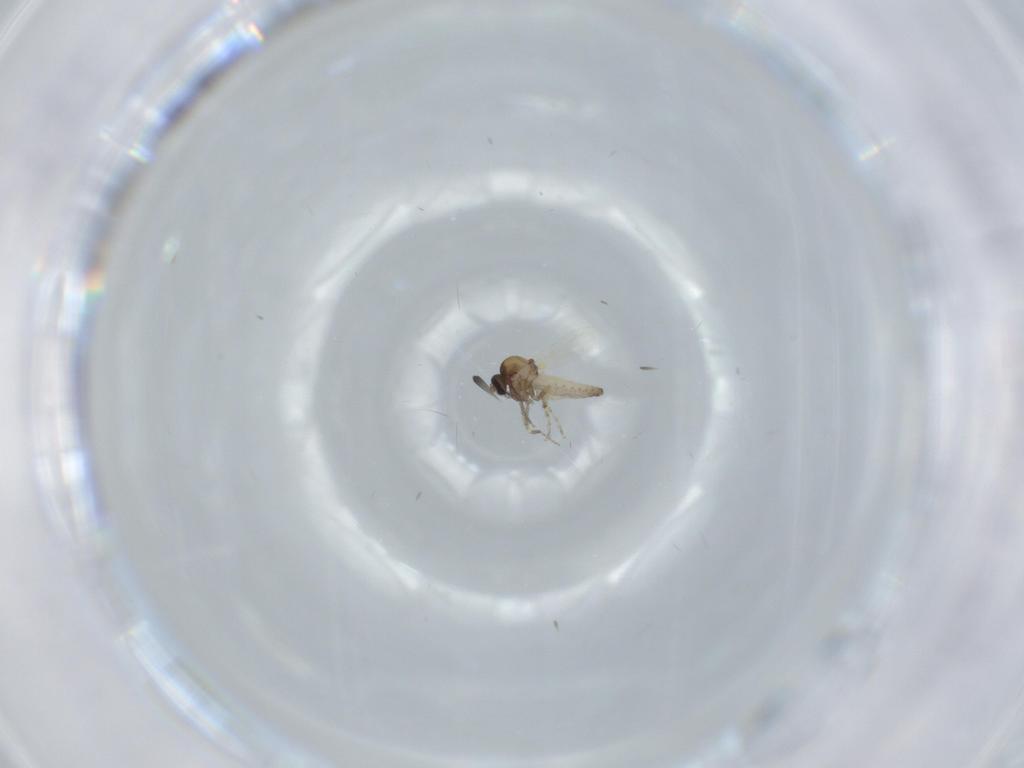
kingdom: Animalia
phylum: Arthropoda
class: Insecta
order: Diptera
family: Ceratopogonidae
